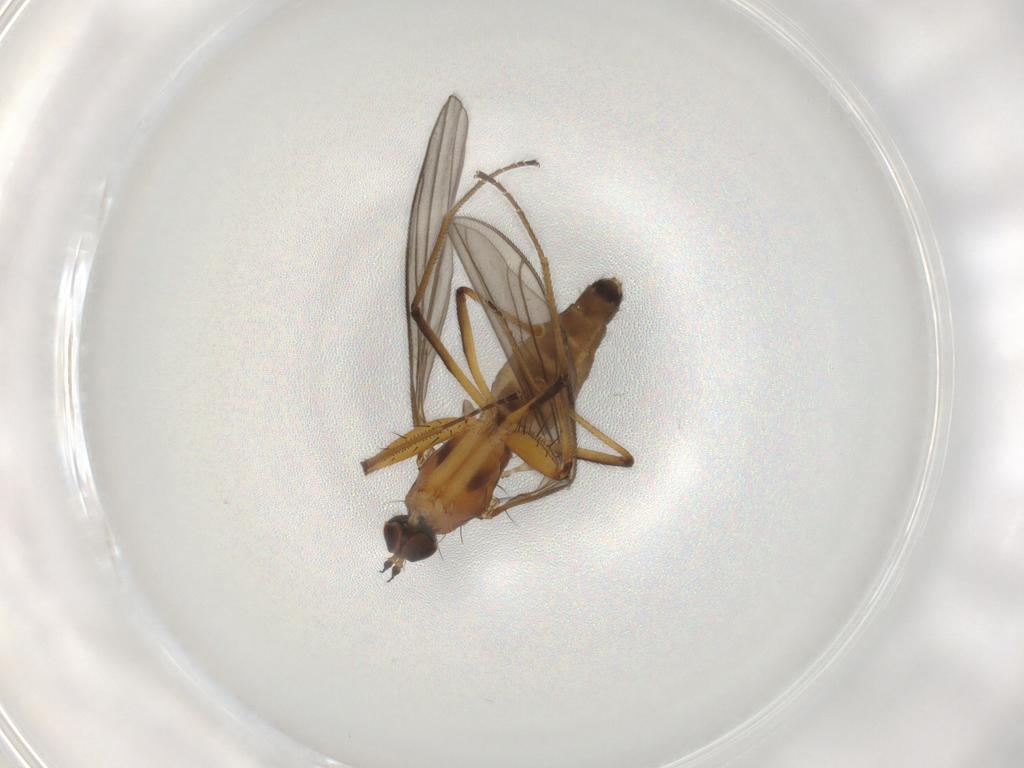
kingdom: Animalia
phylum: Arthropoda
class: Insecta
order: Diptera
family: Empididae
